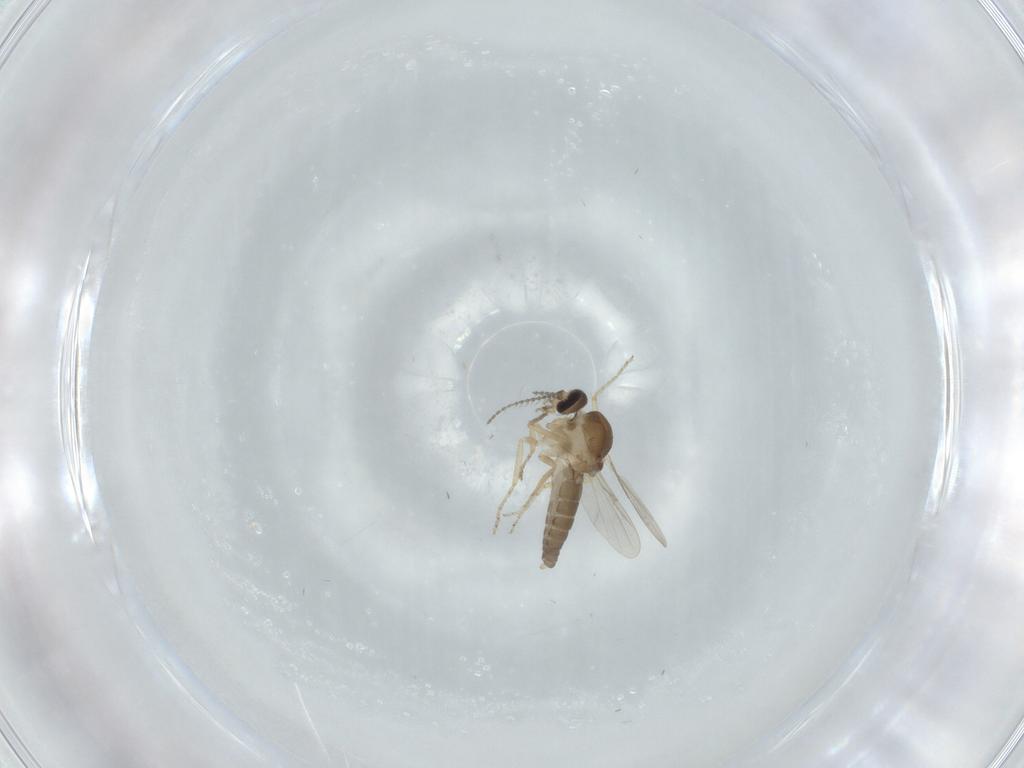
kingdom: Animalia
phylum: Arthropoda
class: Insecta
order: Diptera
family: Ceratopogonidae
